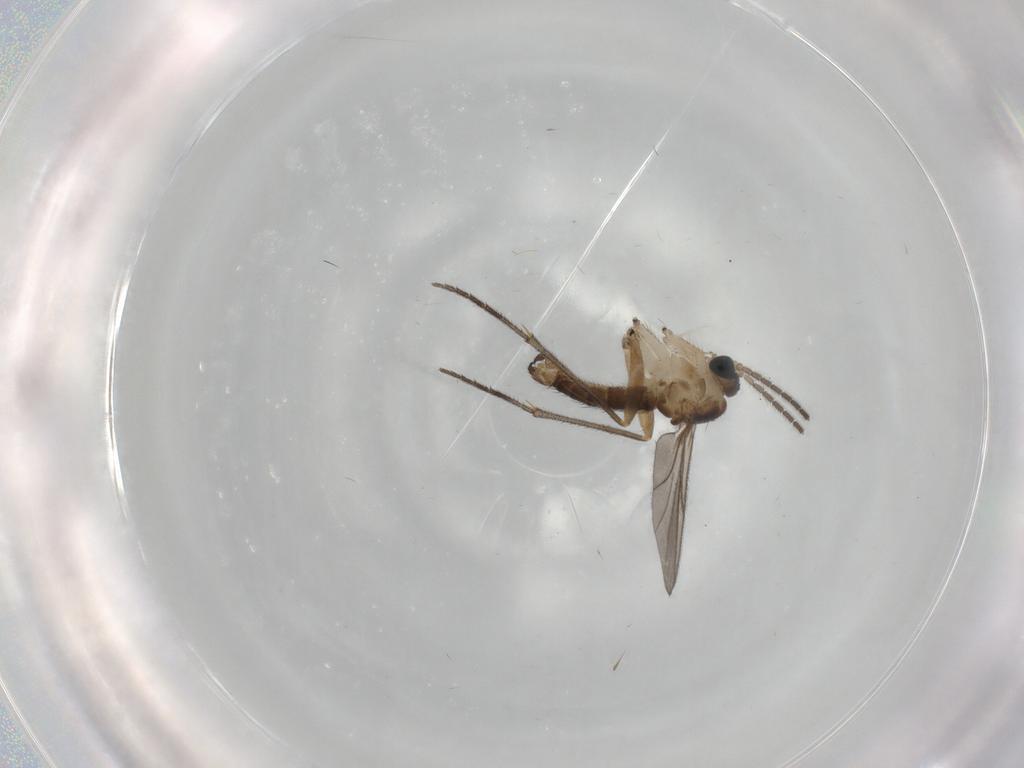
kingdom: Animalia
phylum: Arthropoda
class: Insecta
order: Diptera
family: Sciaridae
